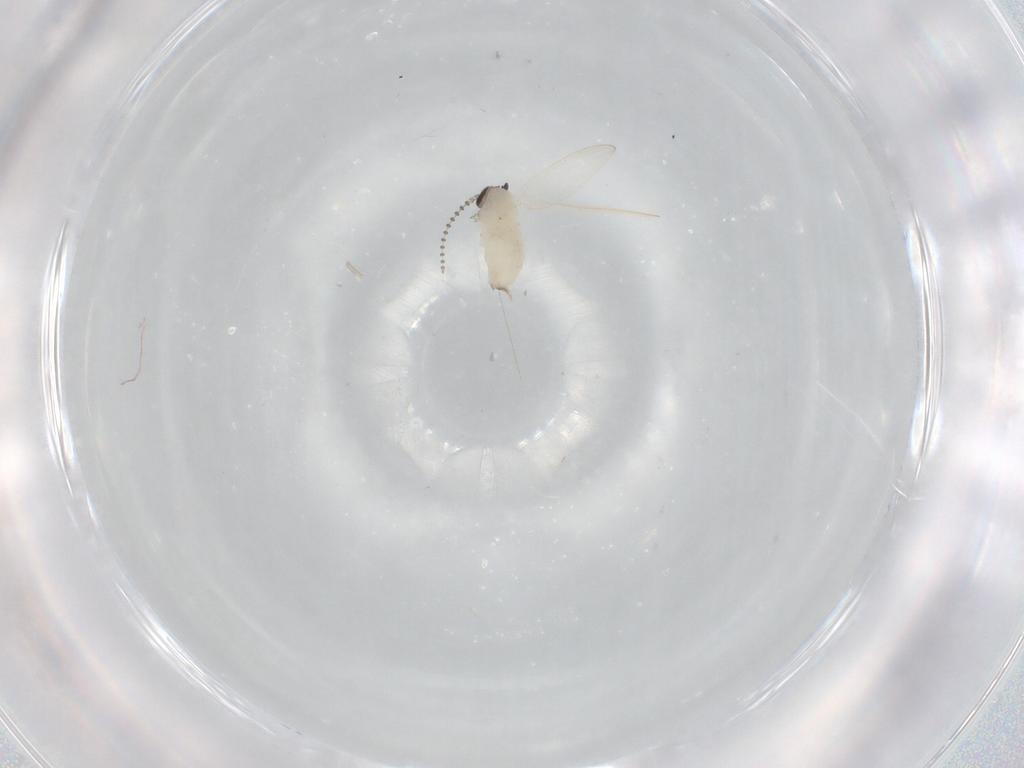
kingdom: Animalia
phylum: Arthropoda
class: Insecta
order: Diptera
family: Psychodidae
